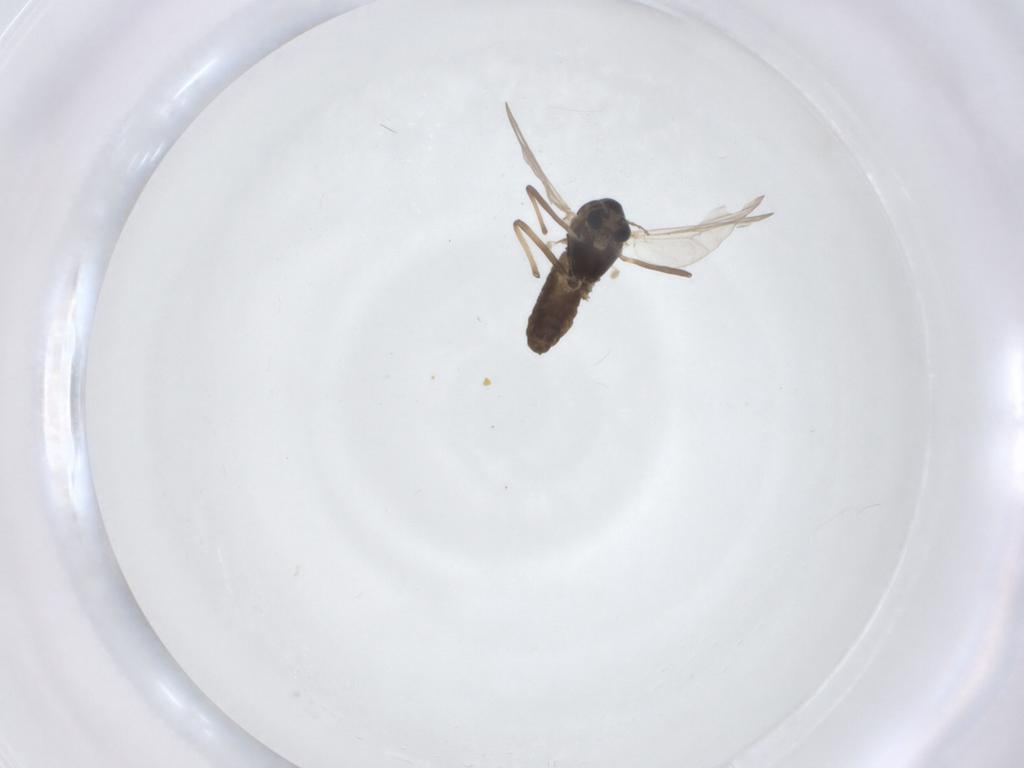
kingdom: Animalia
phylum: Arthropoda
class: Insecta
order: Diptera
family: Chironomidae
